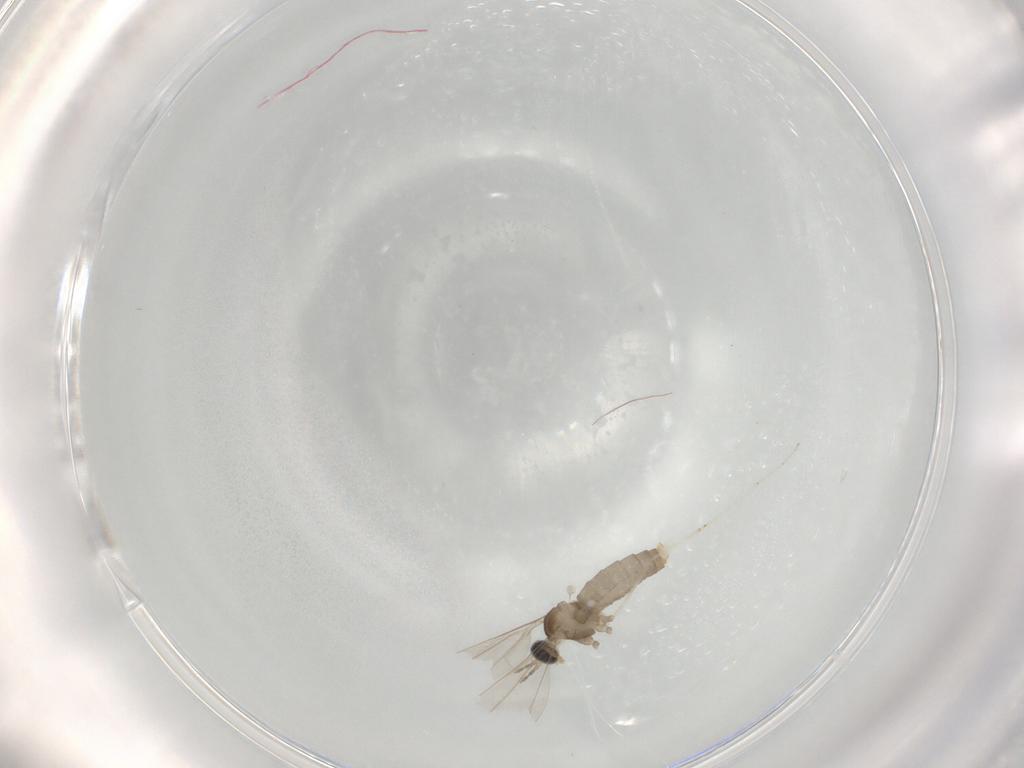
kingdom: Animalia
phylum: Arthropoda
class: Insecta
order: Diptera
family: Cecidomyiidae
